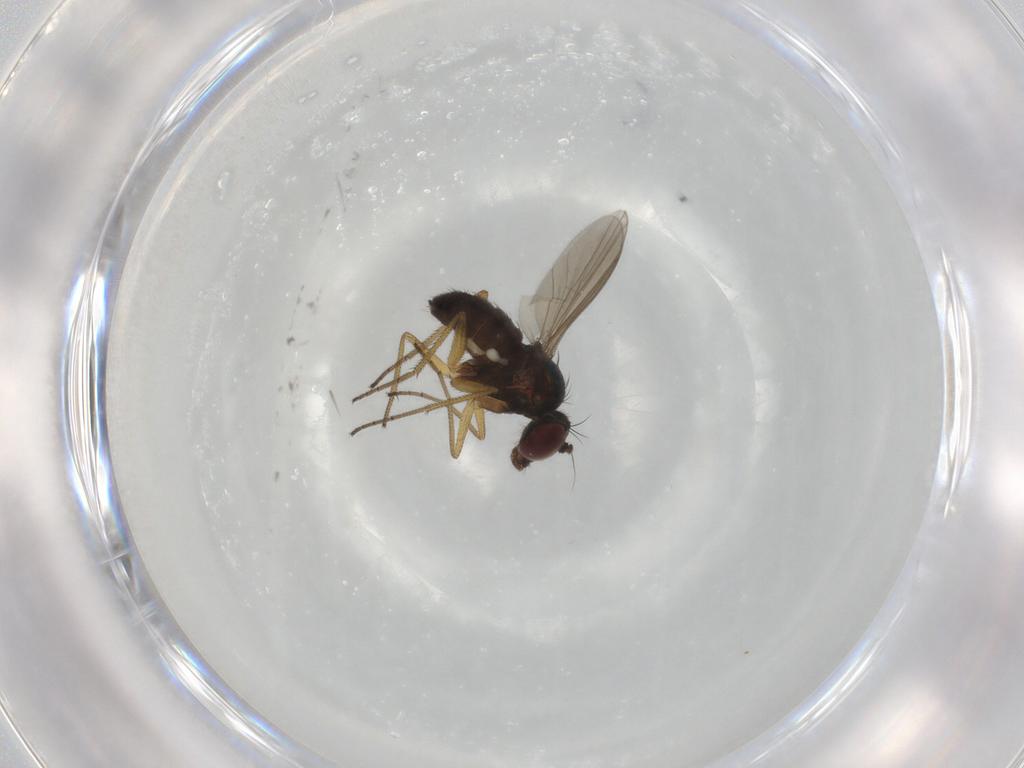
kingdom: Animalia
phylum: Arthropoda
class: Insecta
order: Diptera
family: Dolichopodidae
